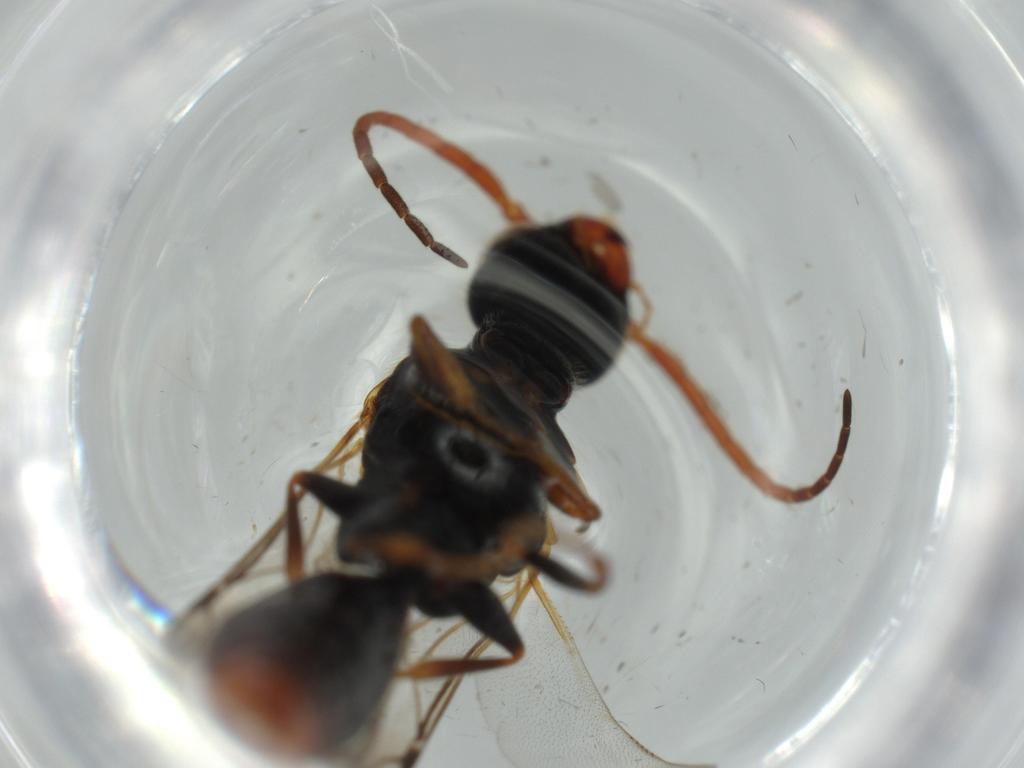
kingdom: Animalia
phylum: Arthropoda
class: Insecta
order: Hymenoptera
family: Bethylidae
